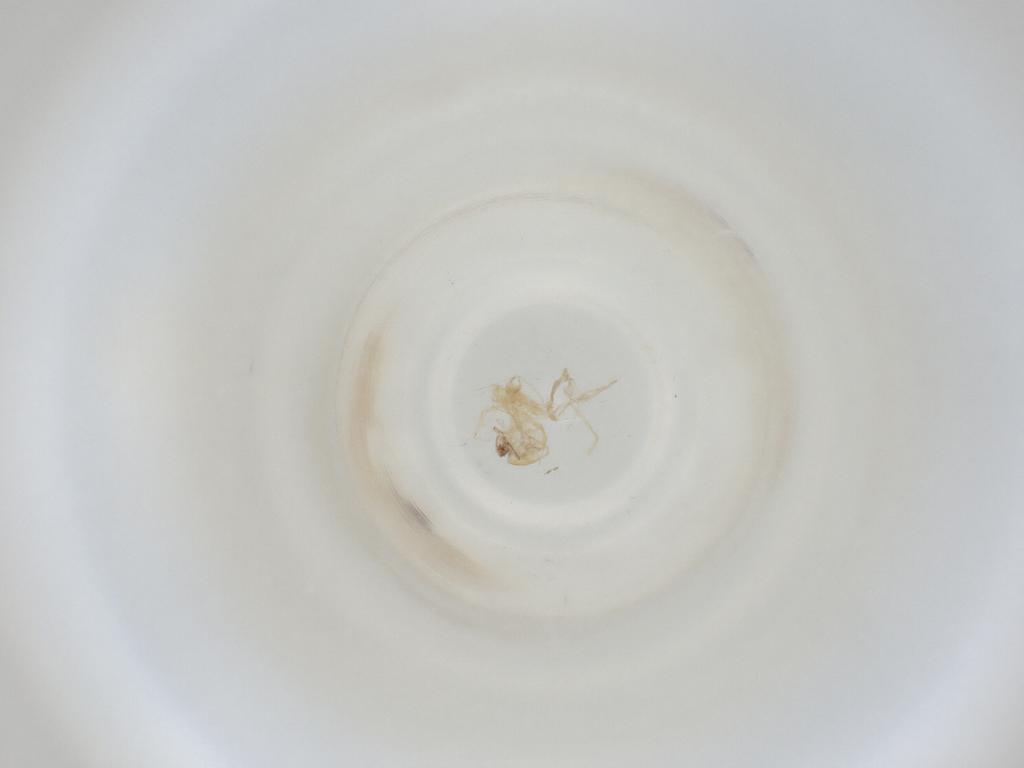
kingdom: Animalia
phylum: Arthropoda
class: Insecta
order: Diptera
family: Cecidomyiidae
